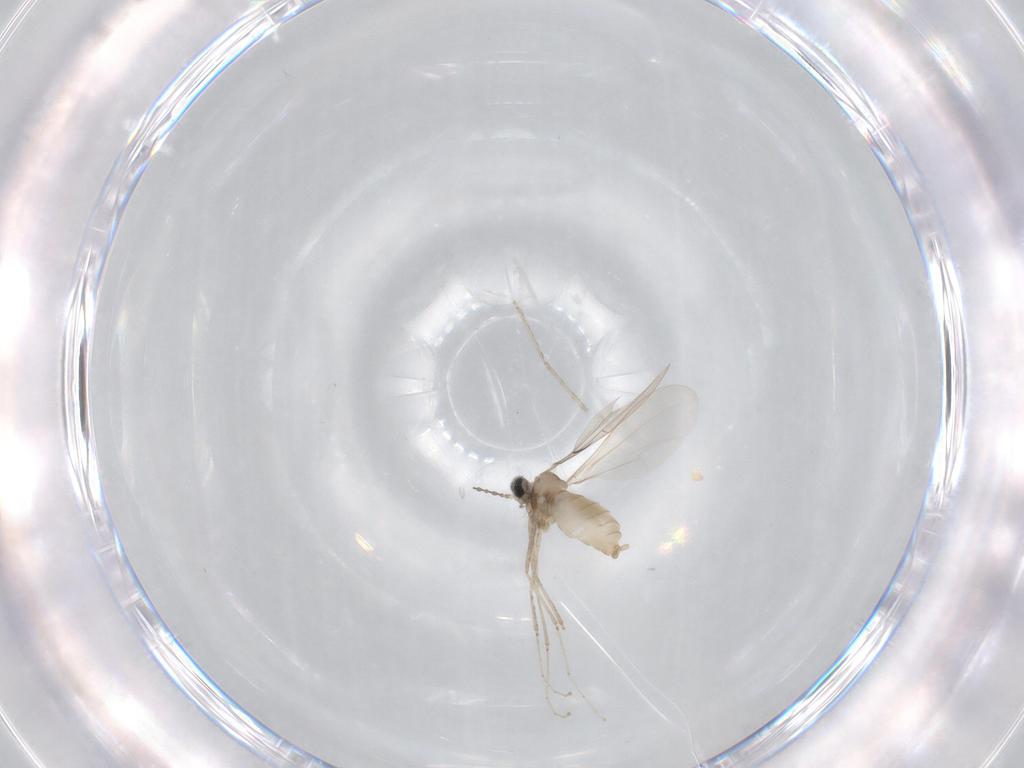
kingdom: Animalia
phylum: Arthropoda
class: Insecta
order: Diptera
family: Cecidomyiidae
